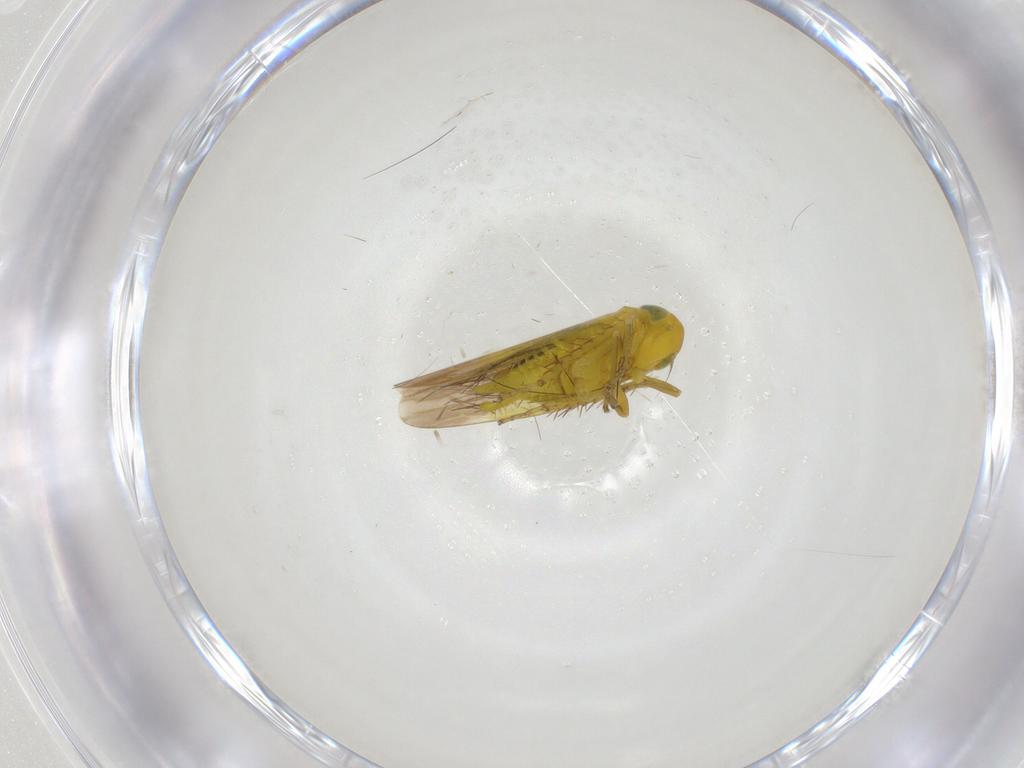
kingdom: Animalia
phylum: Arthropoda
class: Insecta
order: Hemiptera
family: Cicadellidae
